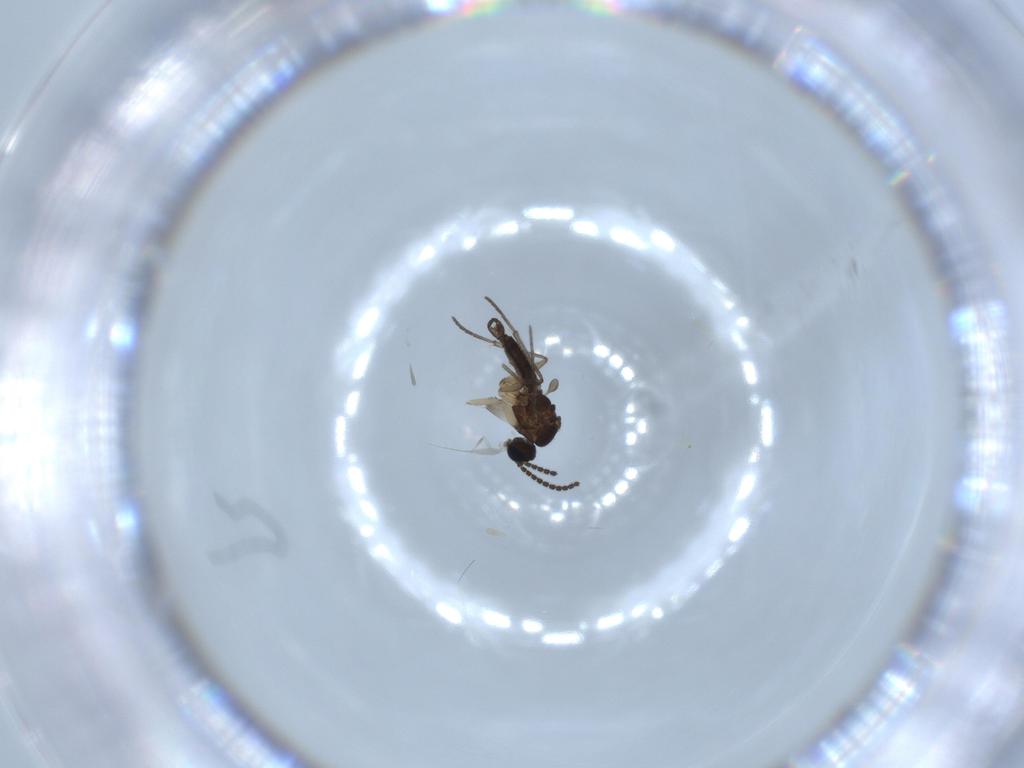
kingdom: Animalia
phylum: Arthropoda
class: Insecta
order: Diptera
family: Sciaridae
